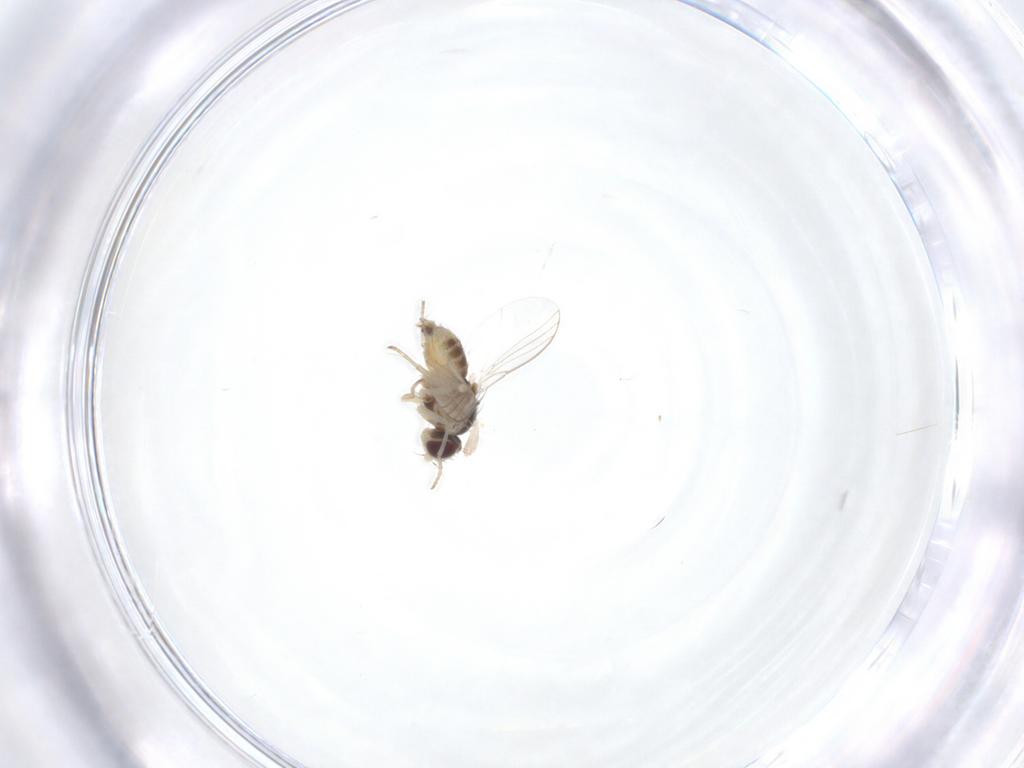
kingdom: Animalia
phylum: Arthropoda
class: Insecta
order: Diptera
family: Agromyzidae
